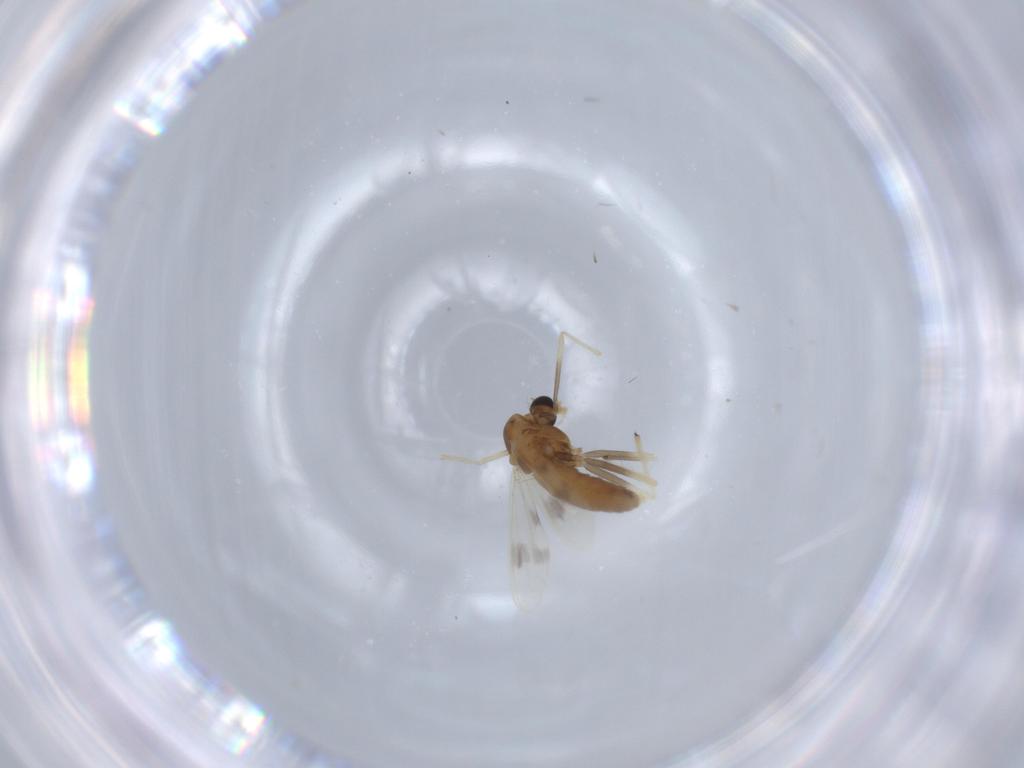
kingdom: Animalia
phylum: Arthropoda
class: Insecta
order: Diptera
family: Chironomidae
